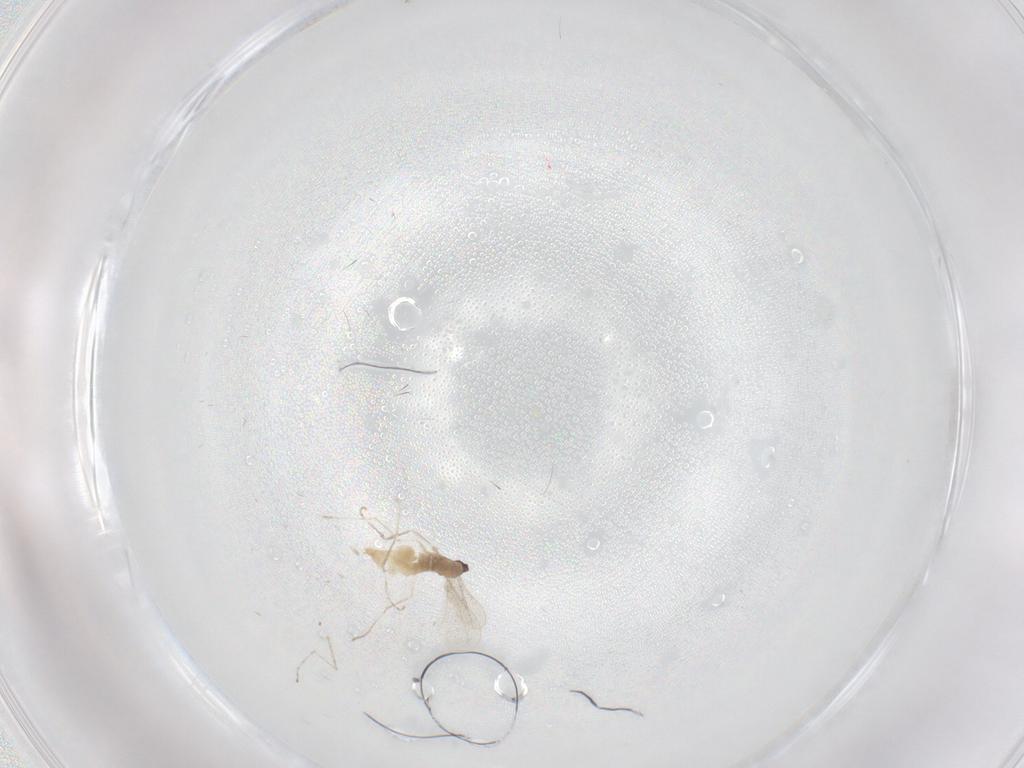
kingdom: Animalia
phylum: Arthropoda
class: Insecta
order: Diptera
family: Cecidomyiidae
